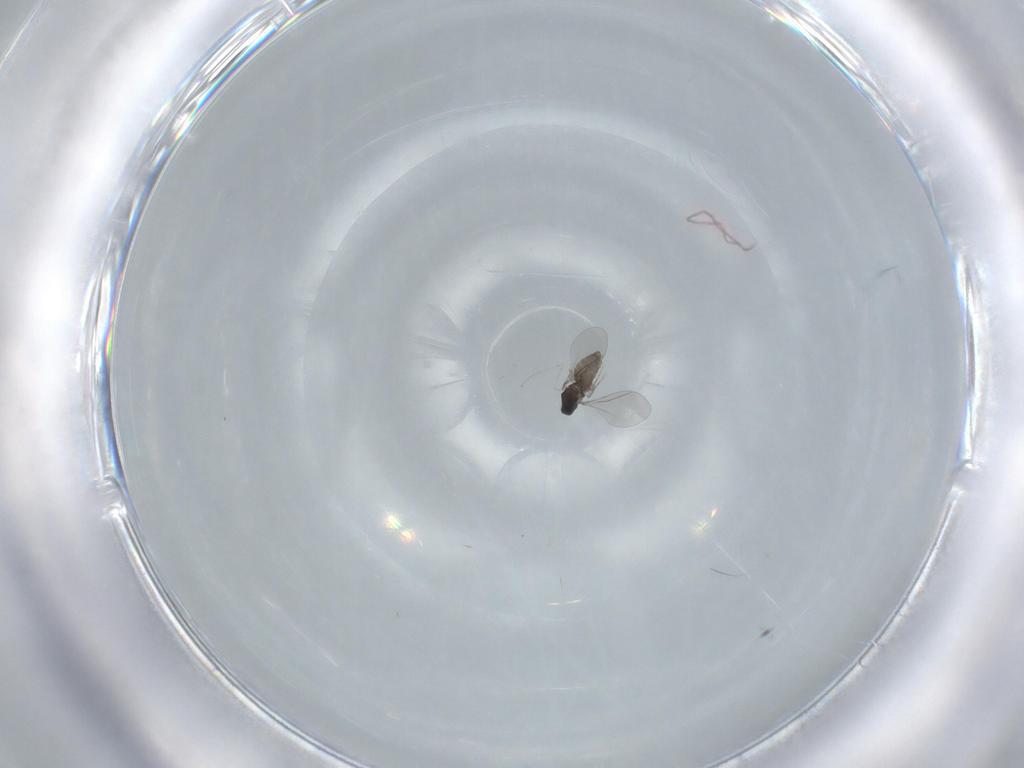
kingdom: Animalia
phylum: Arthropoda
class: Insecta
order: Diptera
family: Cecidomyiidae
